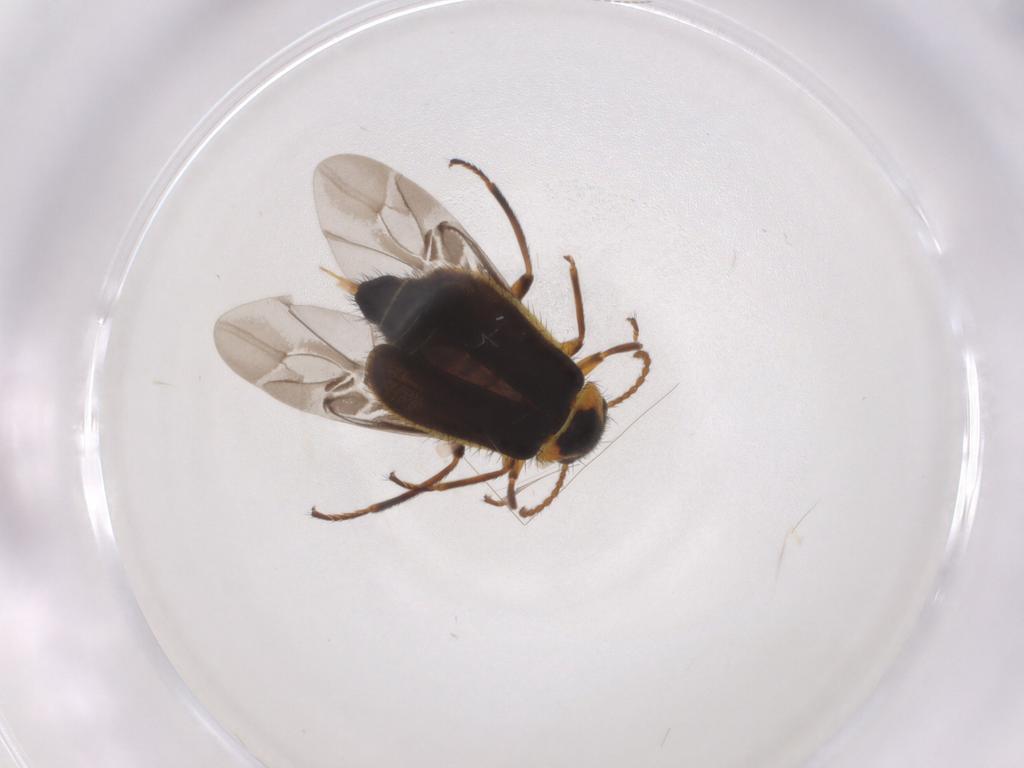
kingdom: Animalia
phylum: Arthropoda
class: Insecta
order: Coleoptera
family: Melyridae
